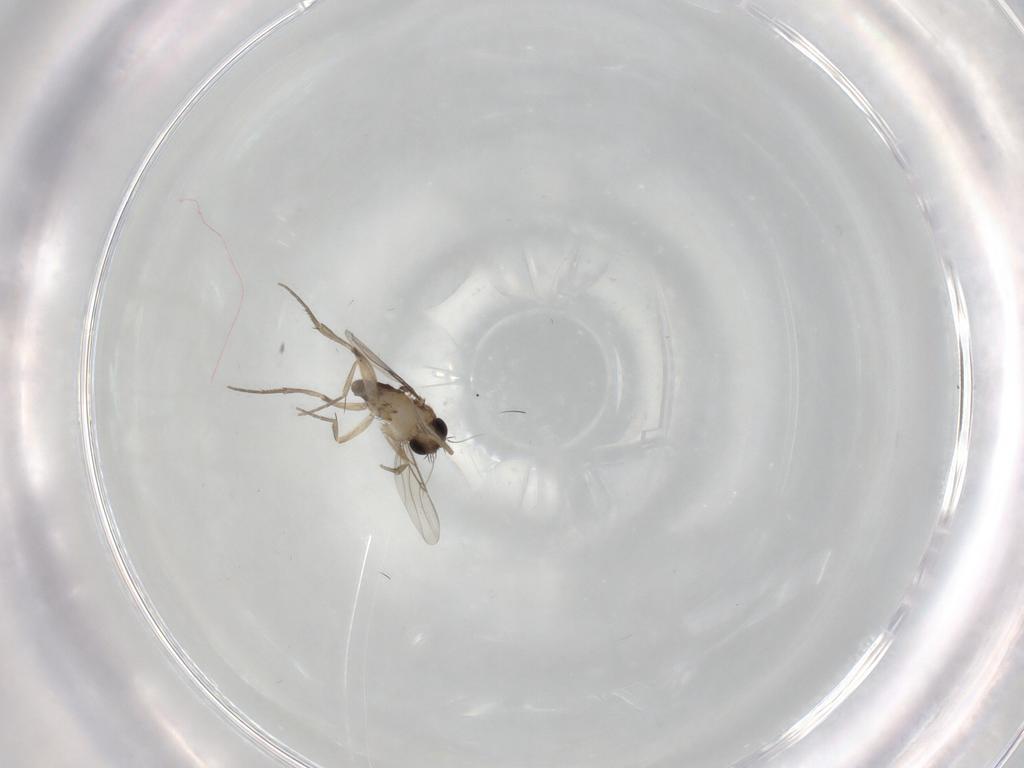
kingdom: Animalia
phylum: Arthropoda
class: Insecta
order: Diptera
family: Phoridae
